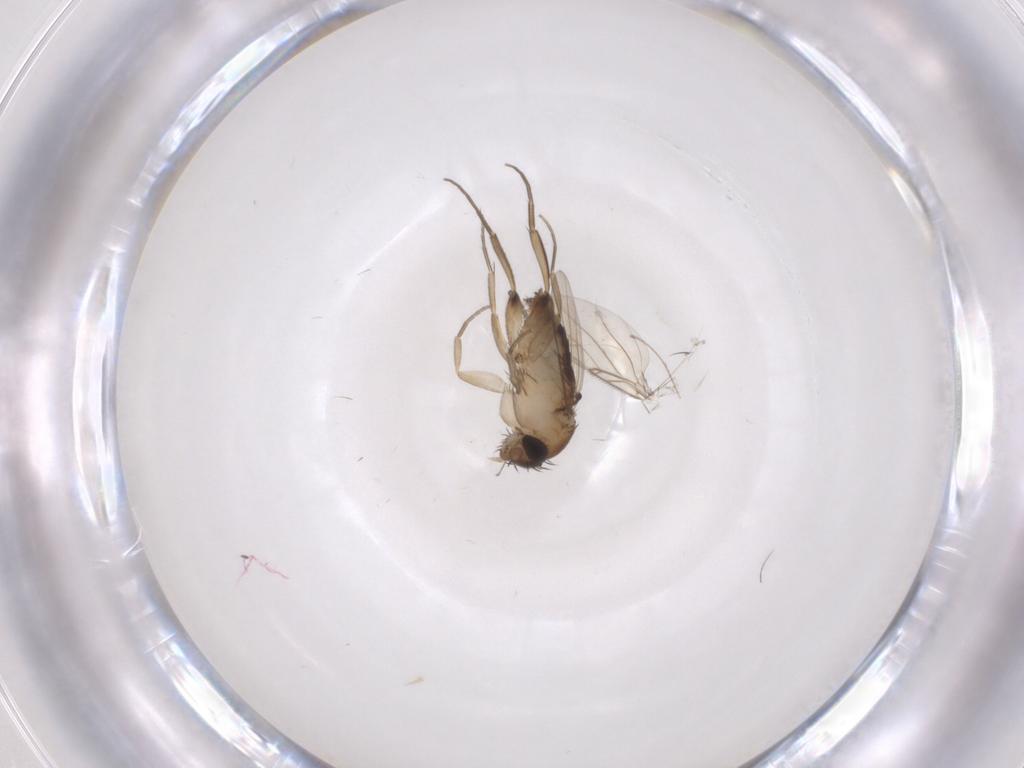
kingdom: Animalia
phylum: Arthropoda
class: Insecta
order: Diptera
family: Phoridae
